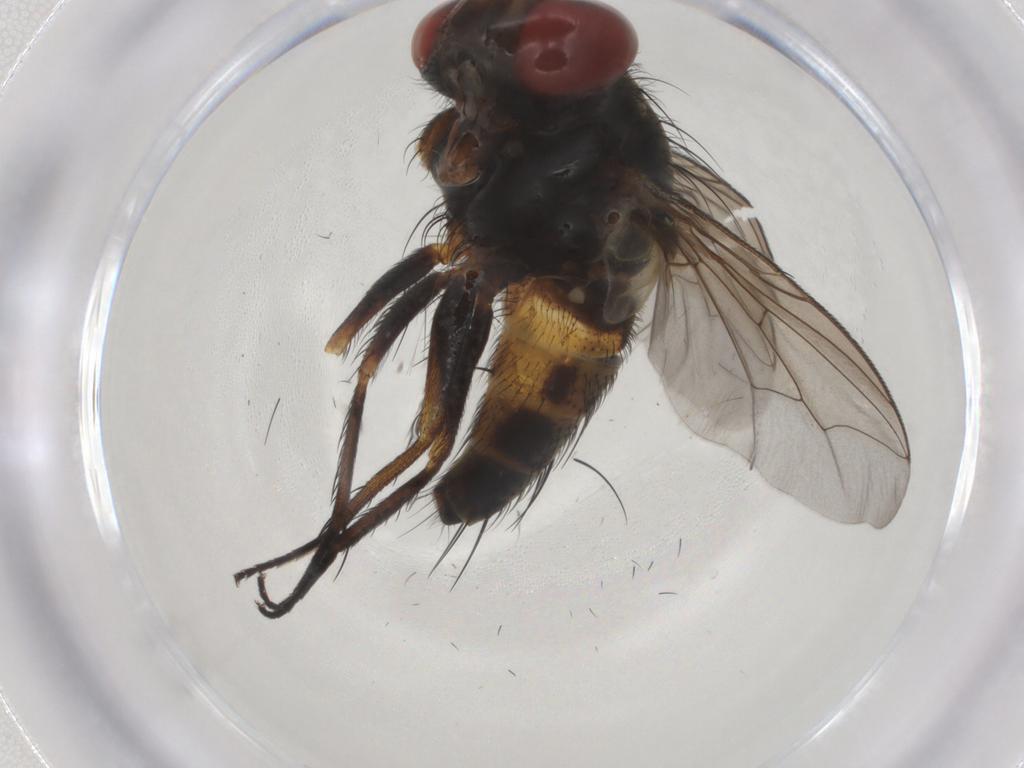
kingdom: Animalia
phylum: Arthropoda
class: Insecta
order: Diptera
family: Sarcophagidae
